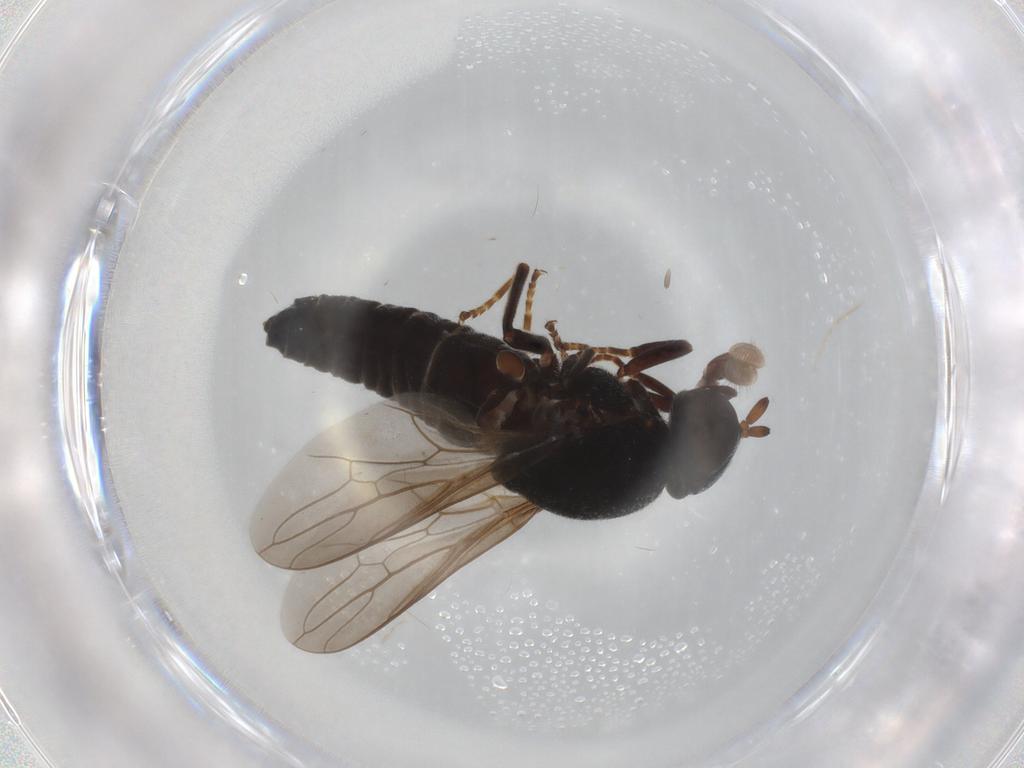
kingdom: Animalia
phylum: Arthropoda
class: Insecta
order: Diptera
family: Scenopinidae
